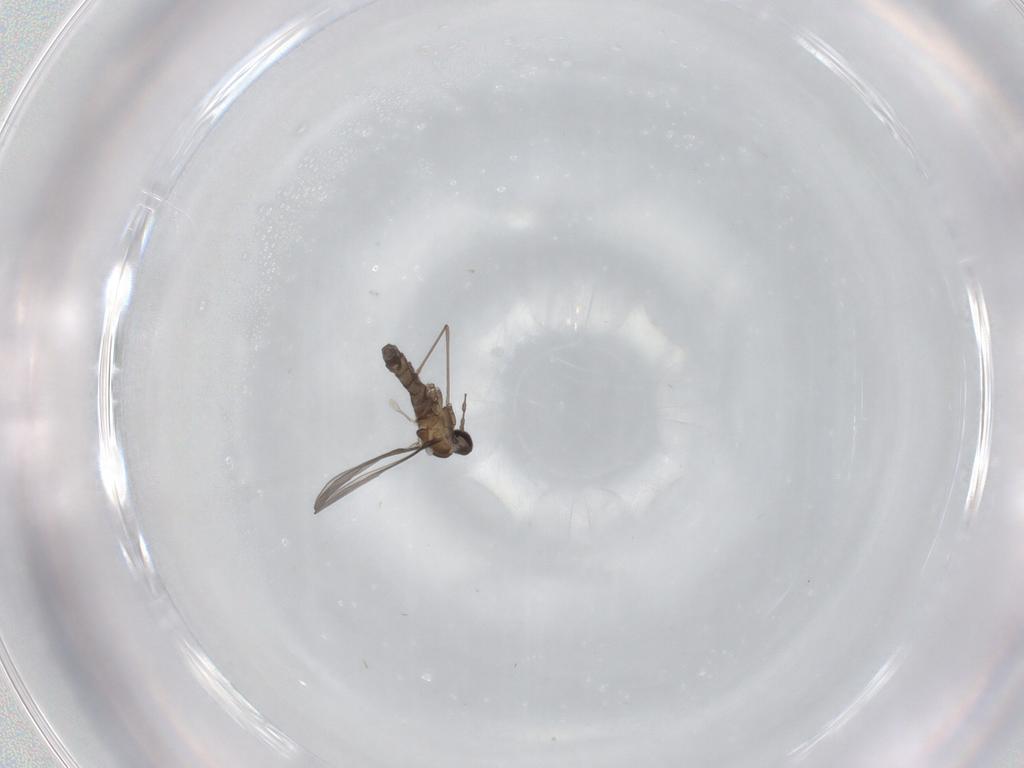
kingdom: Animalia
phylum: Arthropoda
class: Insecta
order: Diptera
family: Cecidomyiidae
